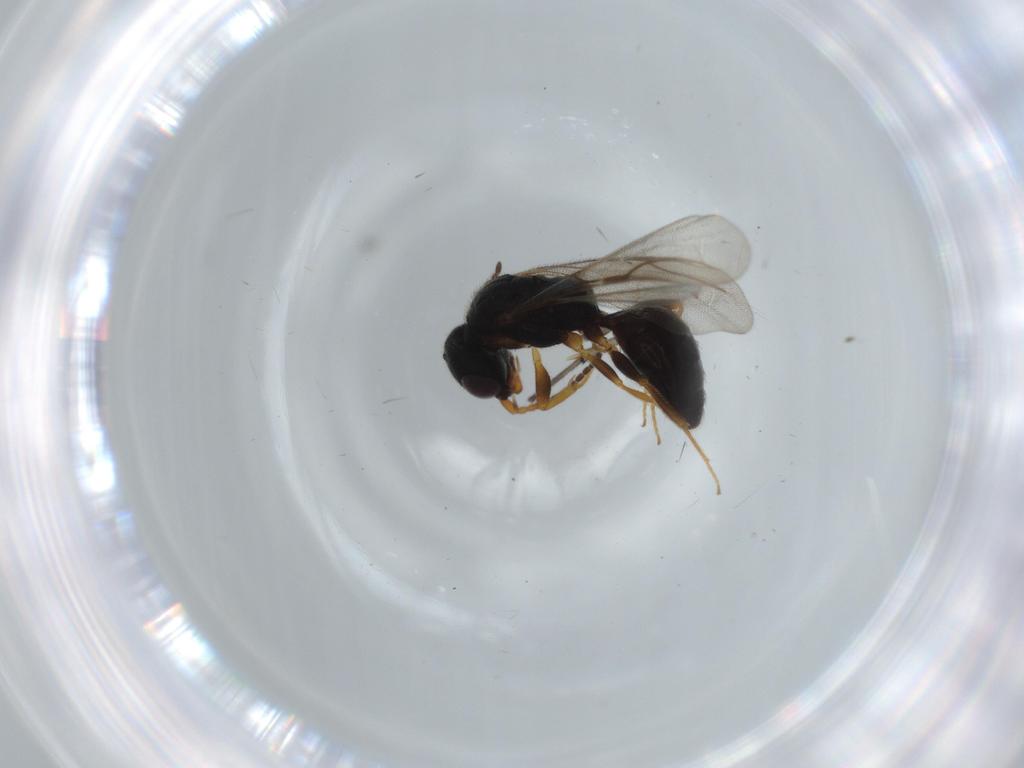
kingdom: Animalia
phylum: Arthropoda
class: Insecta
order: Hymenoptera
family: Bethylidae
